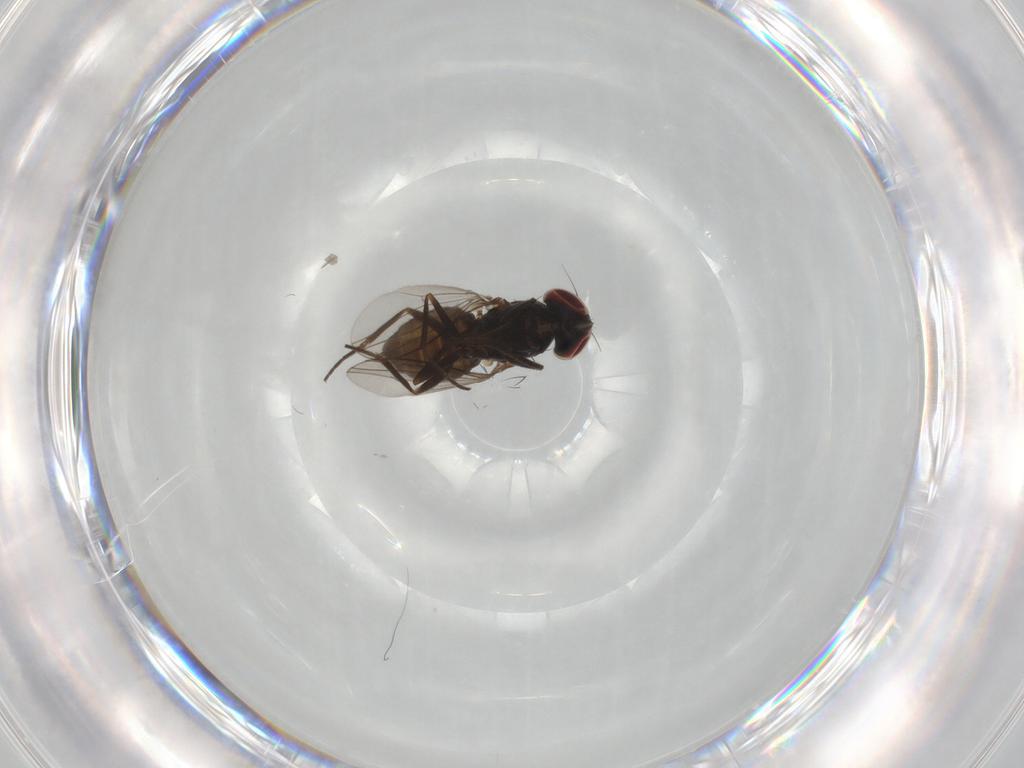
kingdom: Animalia
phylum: Arthropoda
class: Insecta
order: Diptera
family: Dolichopodidae
